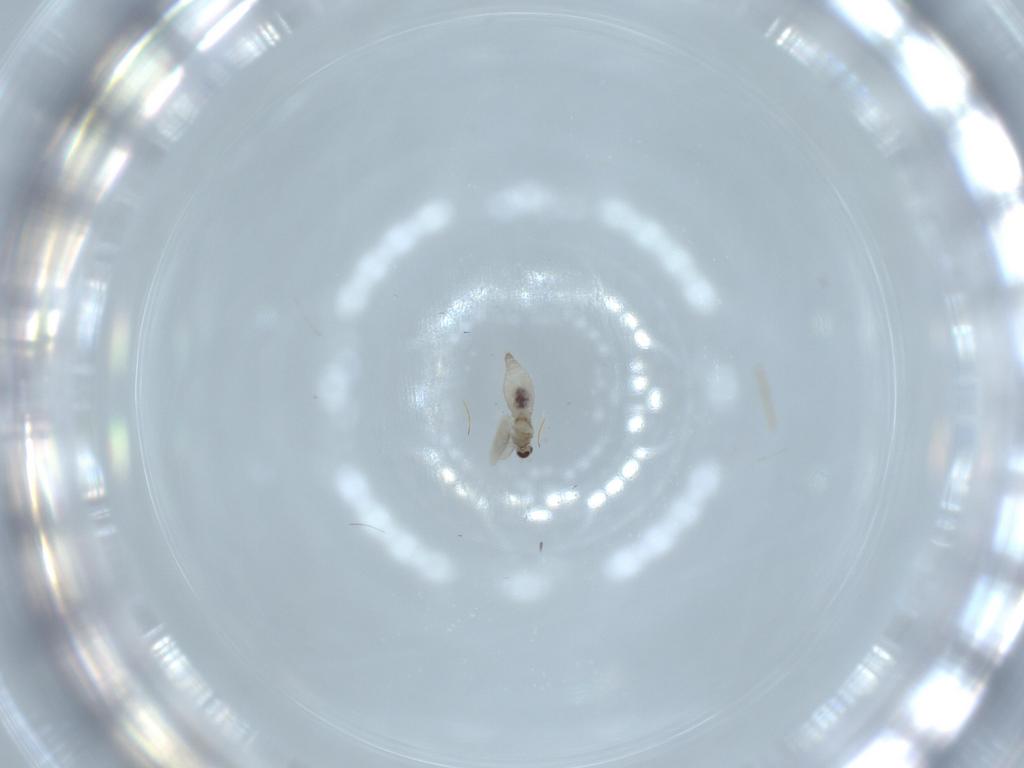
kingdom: Animalia
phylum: Arthropoda
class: Insecta
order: Diptera
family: Cecidomyiidae
